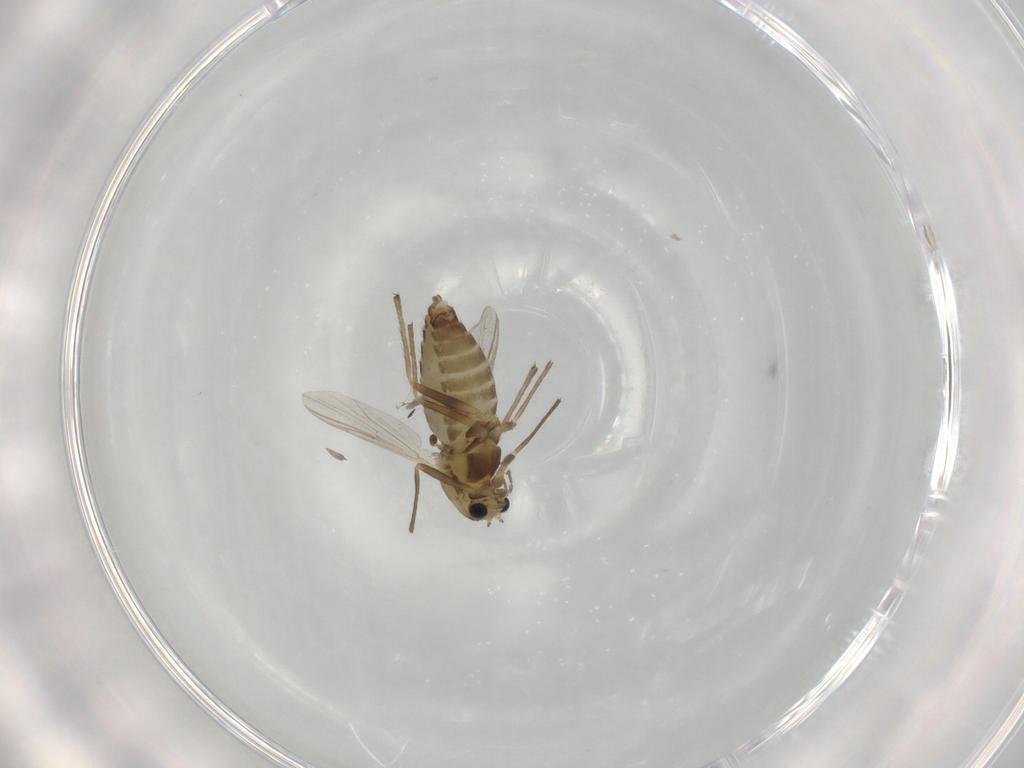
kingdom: Animalia
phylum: Arthropoda
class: Insecta
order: Diptera
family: Chironomidae
